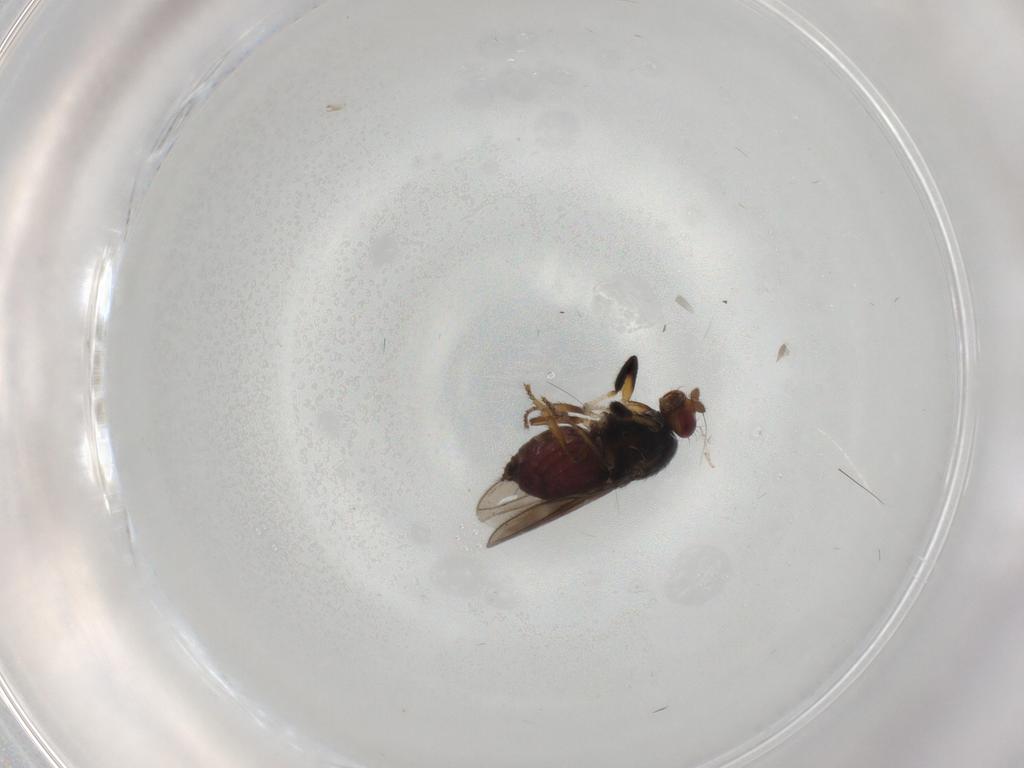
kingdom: Animalia
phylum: Arthropoda
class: Insecta
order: Diptera
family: Sphaeroceridae
